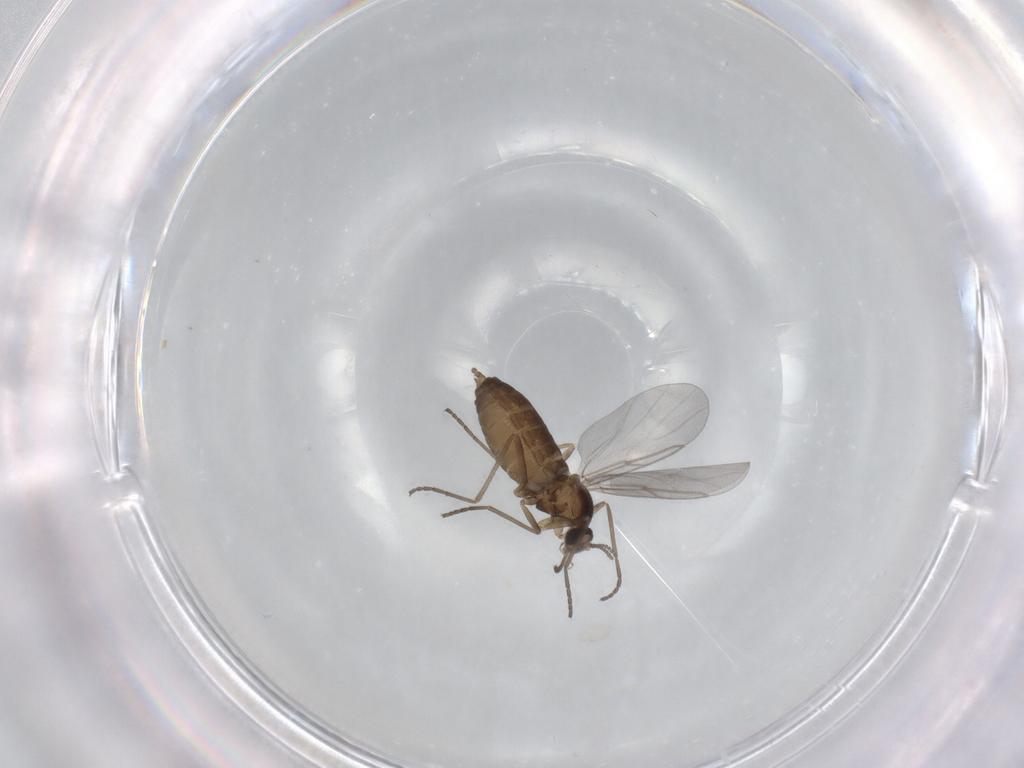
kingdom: Animalia
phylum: Arthropoda
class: Insecta
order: Diptera
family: Cecidomyiidae
